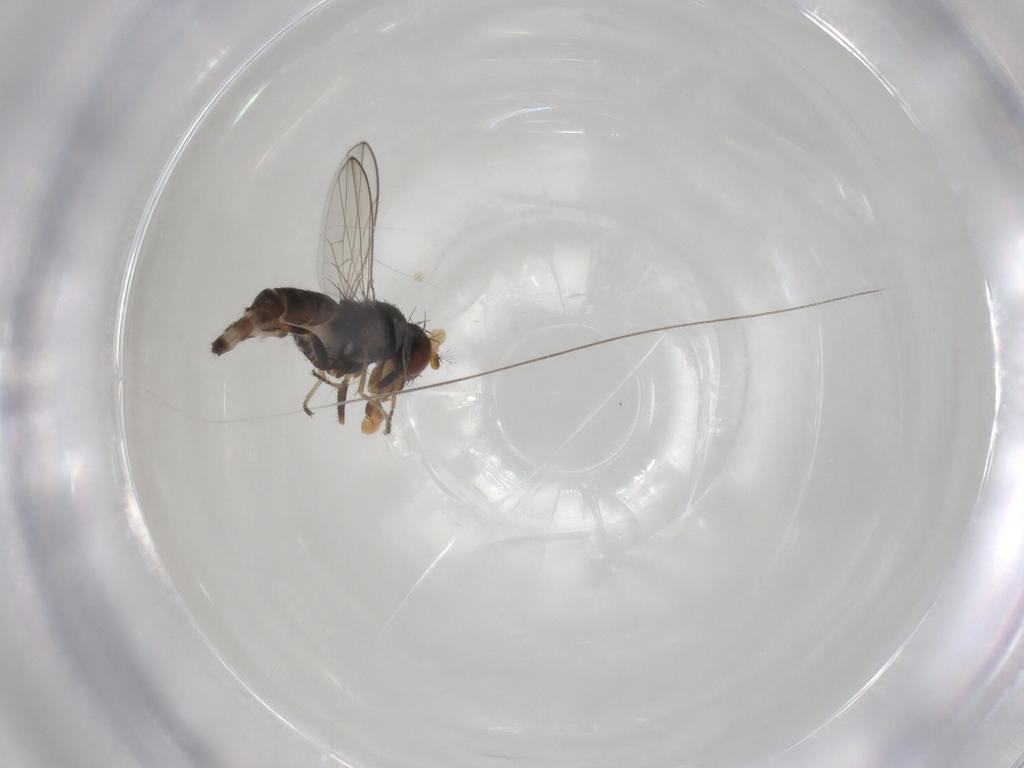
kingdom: Animalia
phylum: Arthropoda
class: Insecta
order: Diptera
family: Ephydridae
